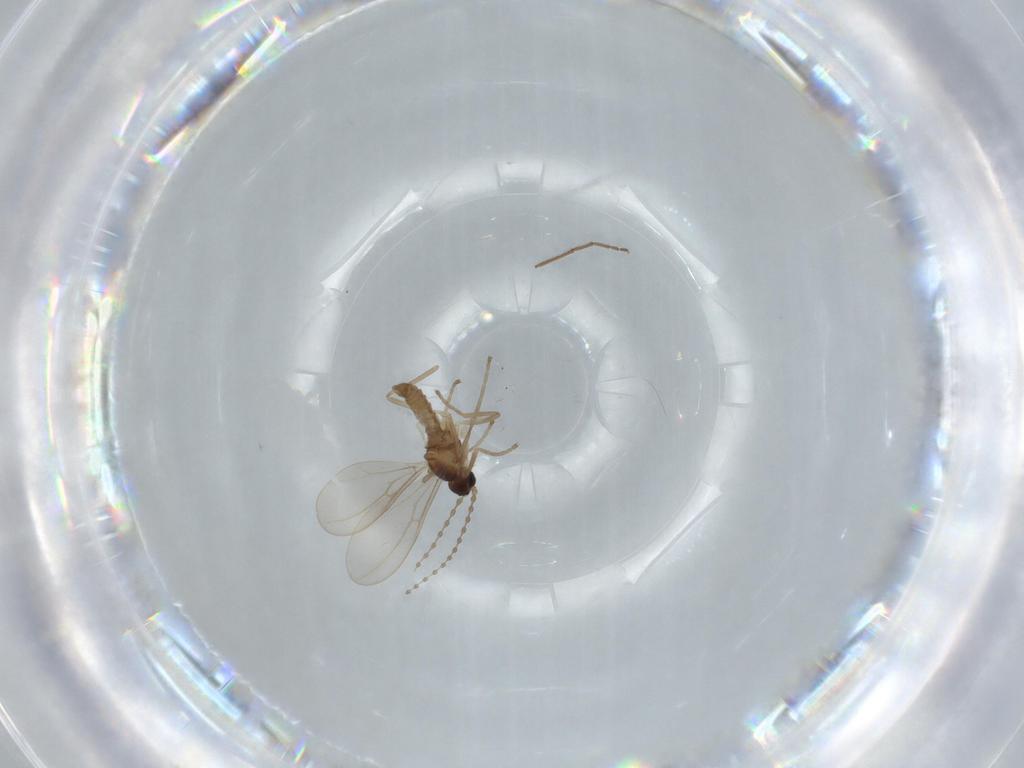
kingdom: Animalia
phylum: Arthropoda
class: Insecta
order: Diptera
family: Cecidomyiidae
